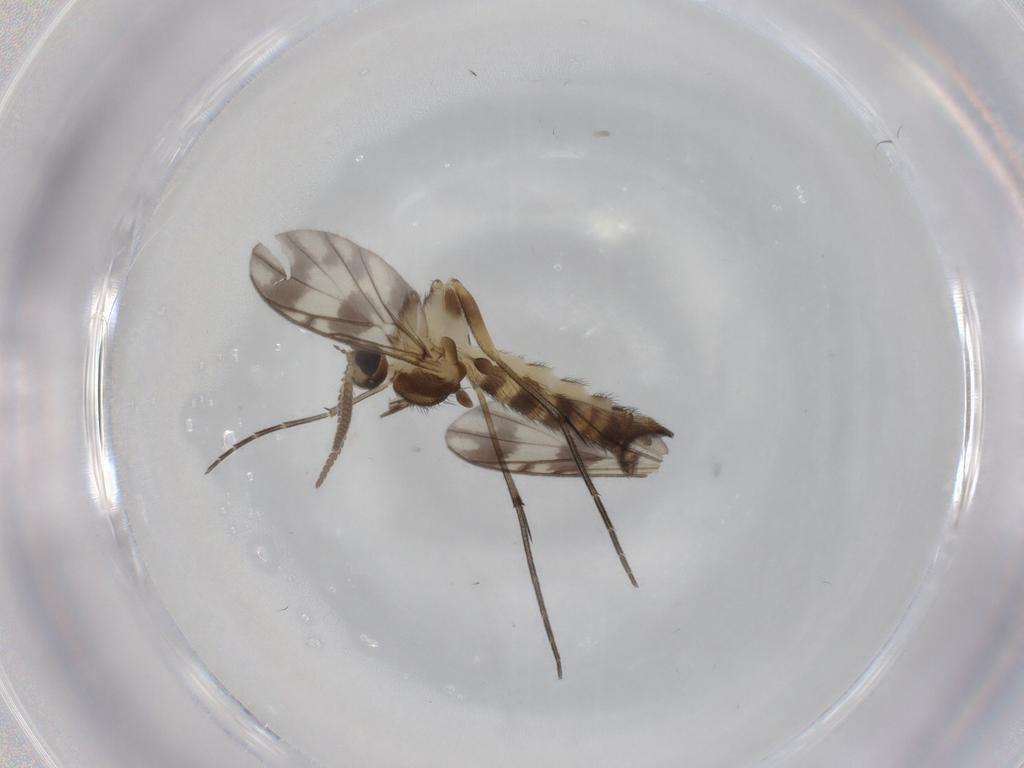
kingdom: Animalia
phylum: Arthropoda
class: Insecta
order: Diptera
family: Keroplatidae
